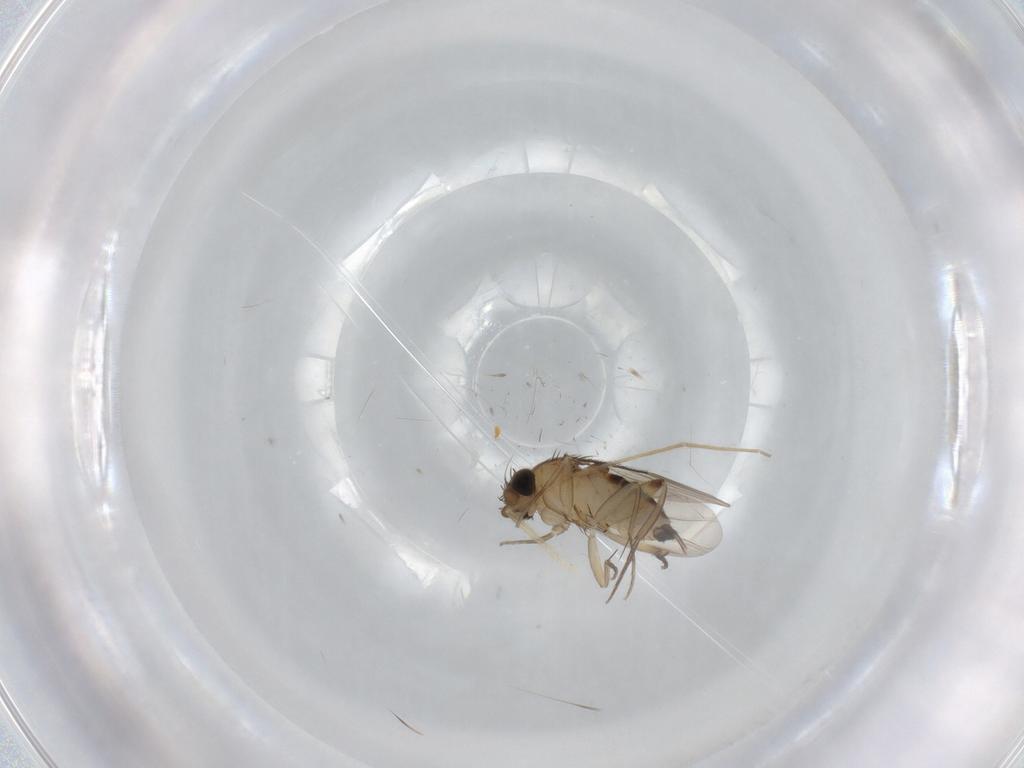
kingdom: Animalia
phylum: Arthropoda
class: Insecta
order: Diptera
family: Phoridae
